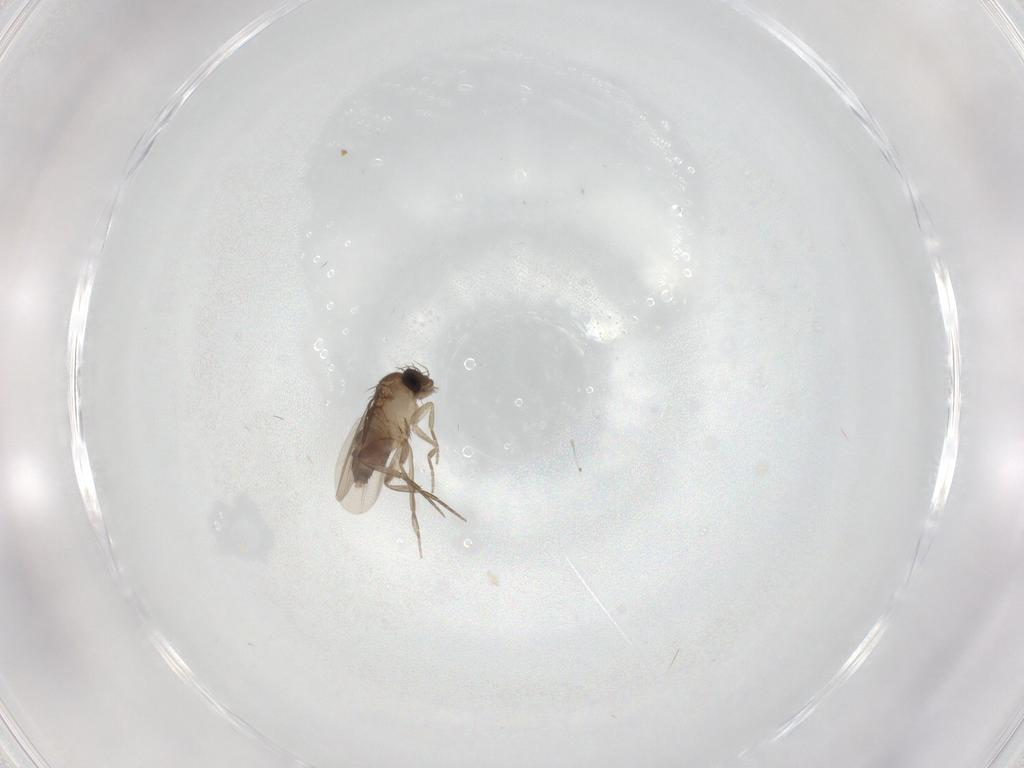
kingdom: Animalia
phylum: Arthropoda
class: Insecta
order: Diptera
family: Phoridae
